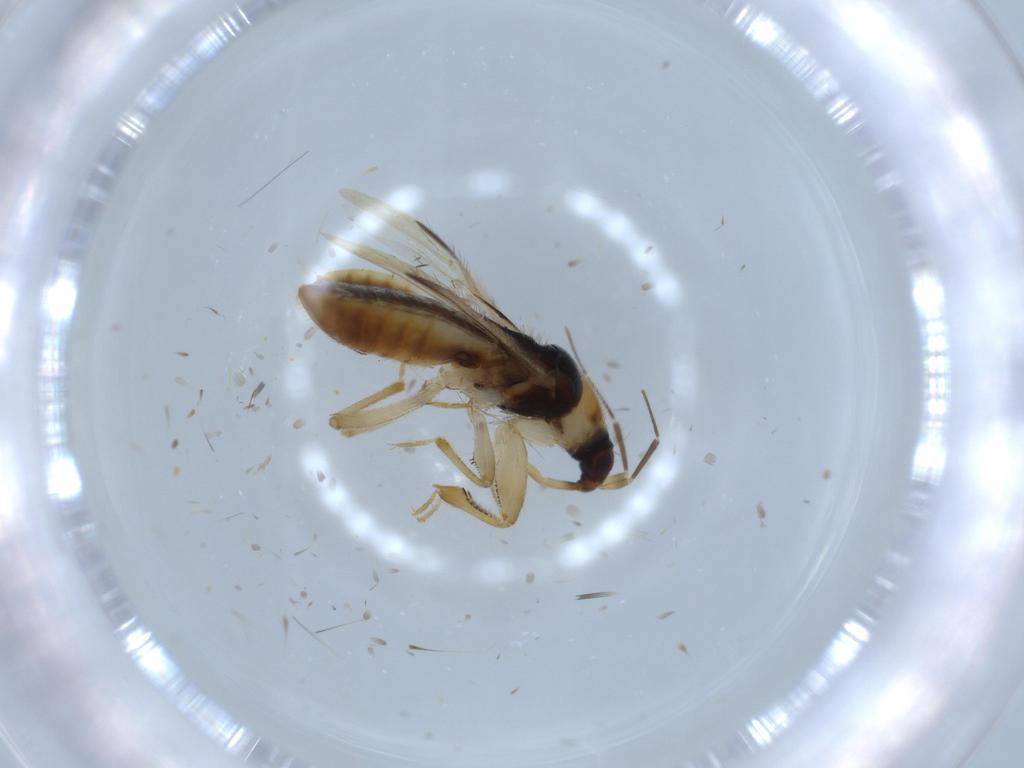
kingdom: Animalia
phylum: Arthropoda
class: Insecta
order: Hemiptera
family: Nabidae
